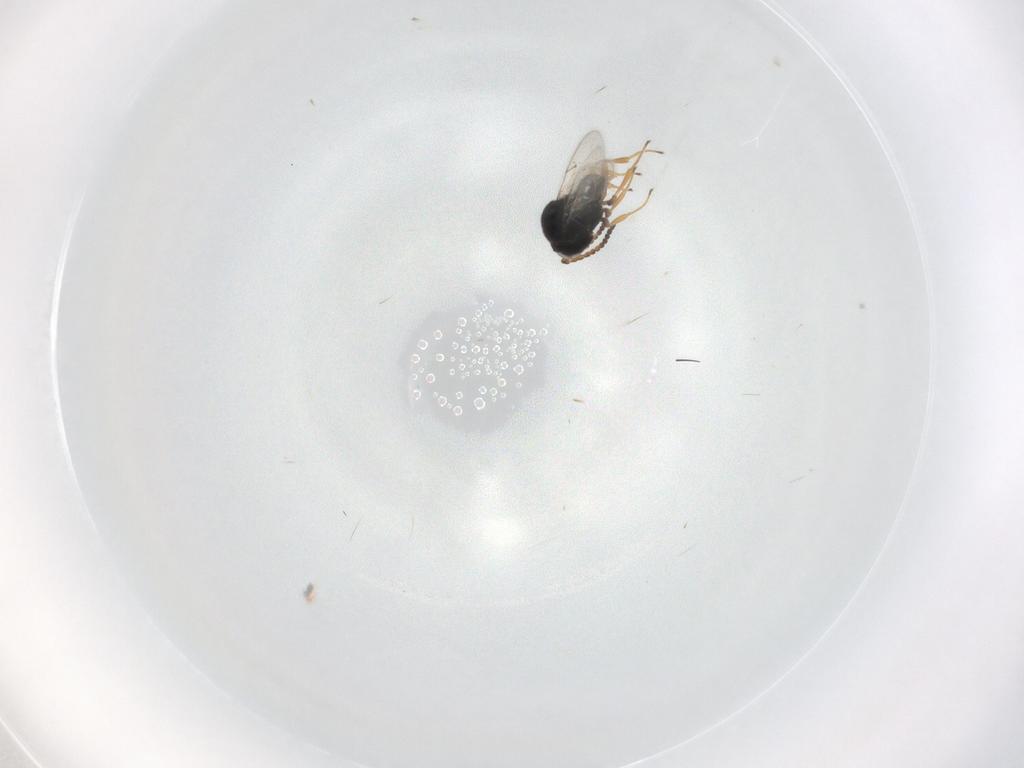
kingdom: Animalia
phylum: Arthropoda
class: Insecta
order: Hymenoptera
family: Scelionidae
